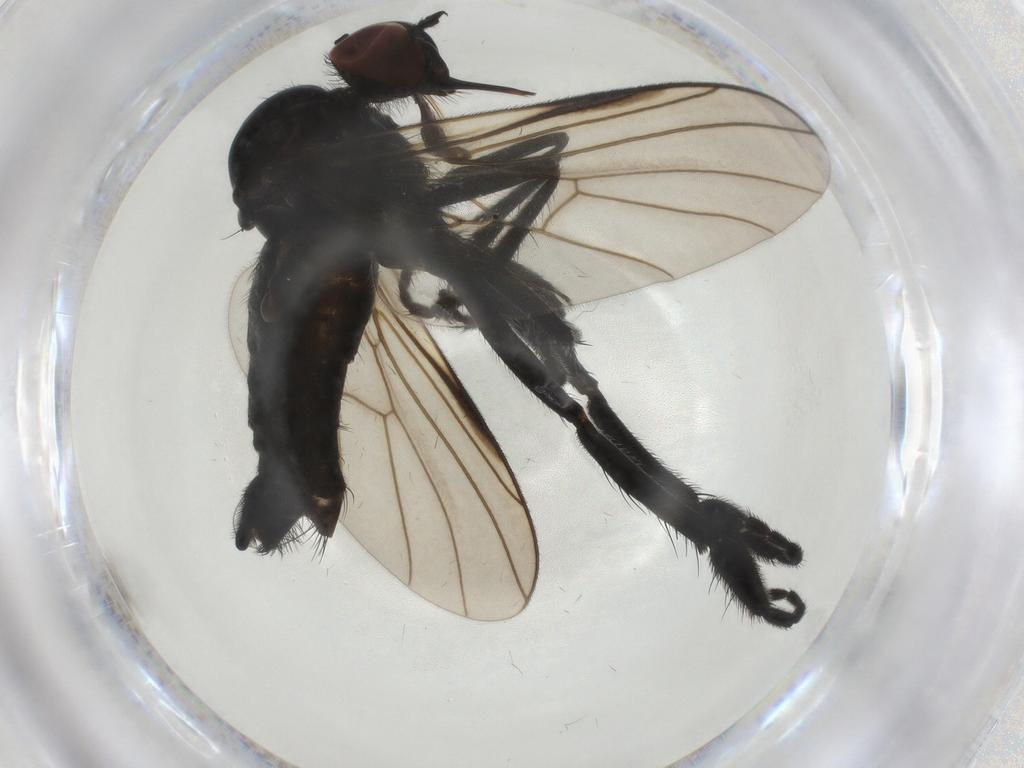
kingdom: Animalia
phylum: Arthropoda
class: Insecta
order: Diptera
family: Empididae
